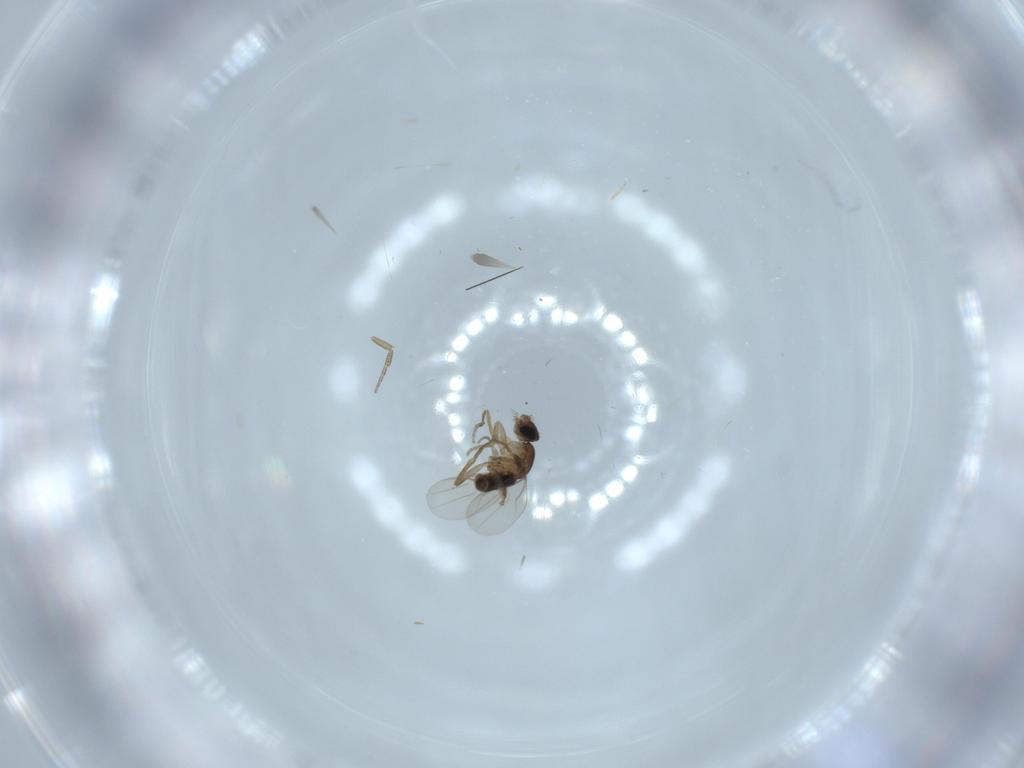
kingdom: Animalia
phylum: Arthropoda
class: Insecta
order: Diptera
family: Phoridae
